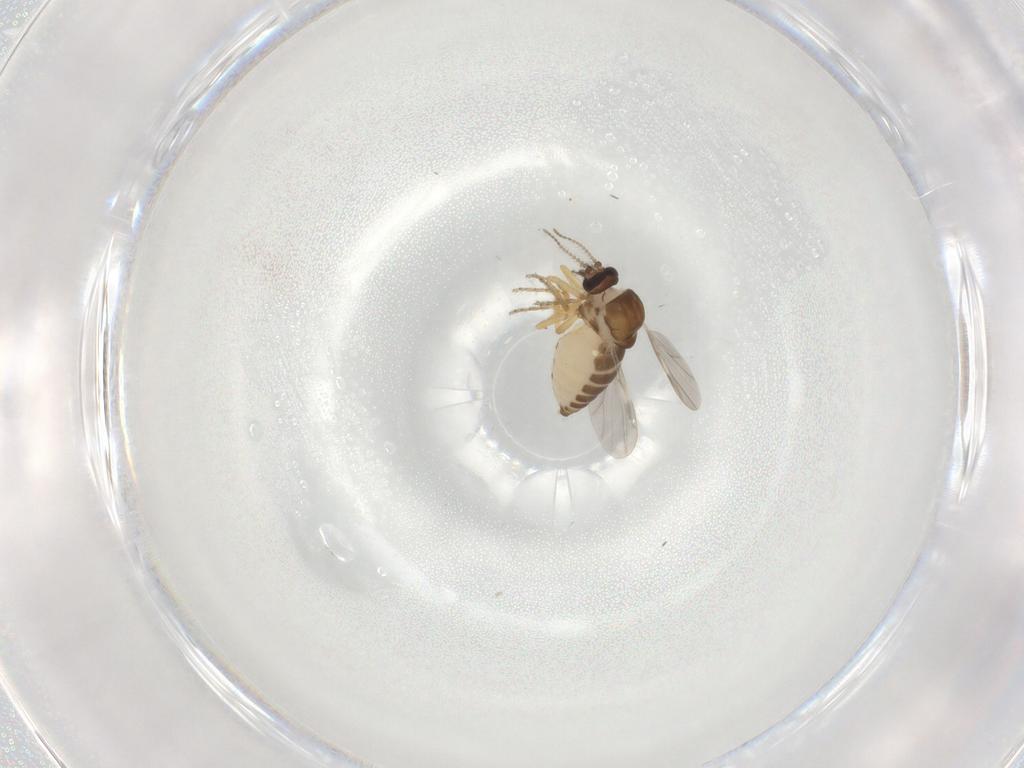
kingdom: Animalia
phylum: Arthropoda
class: Insecta
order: Diptera
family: Ceratopogonidae
